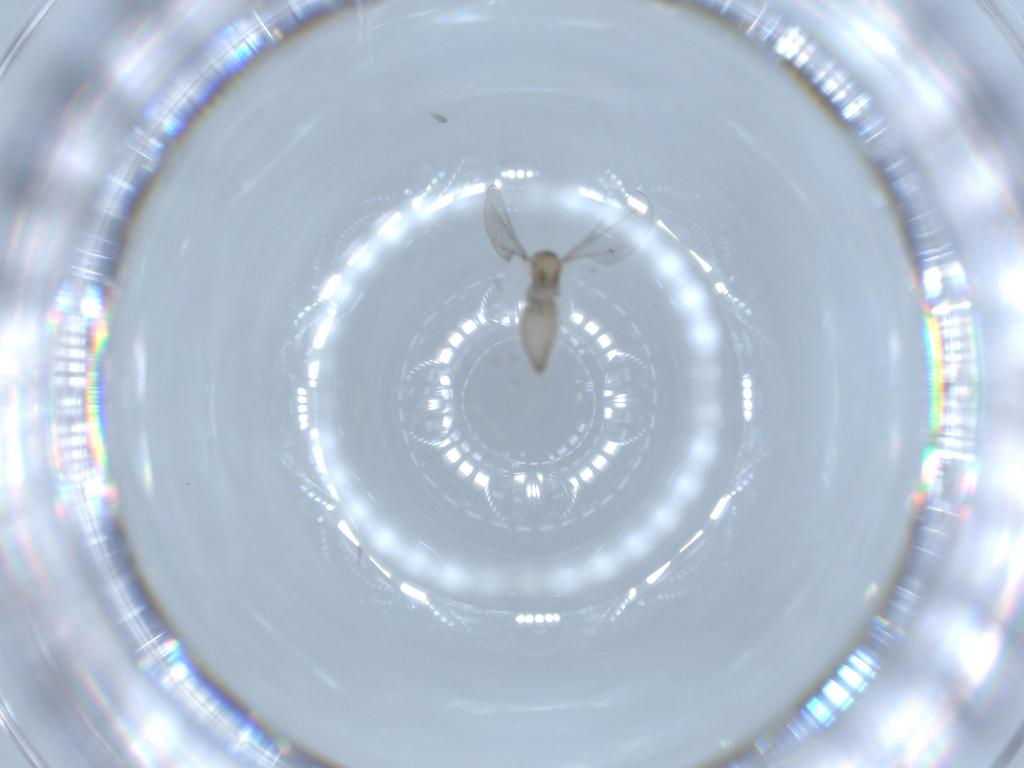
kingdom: Animalia
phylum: Arthropoda
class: Insecta
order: Diptera
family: Cecidomyiidae
